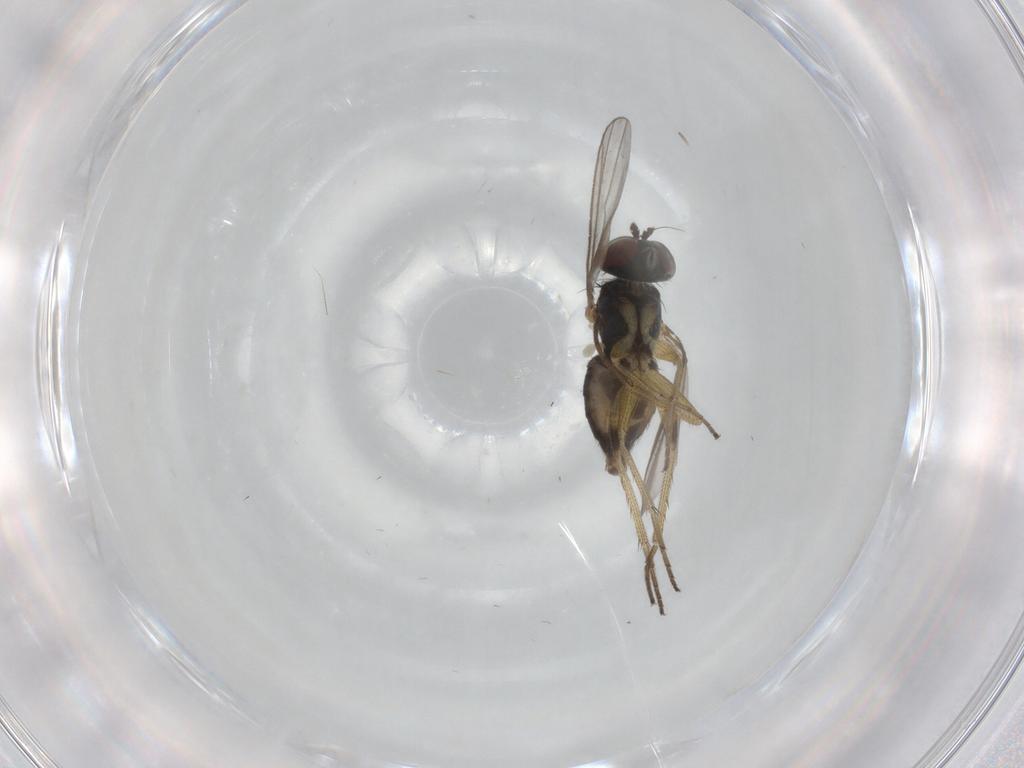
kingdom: Animalia
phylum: Arthropoda
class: Insecta
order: Diptera
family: Dolichopodidae
